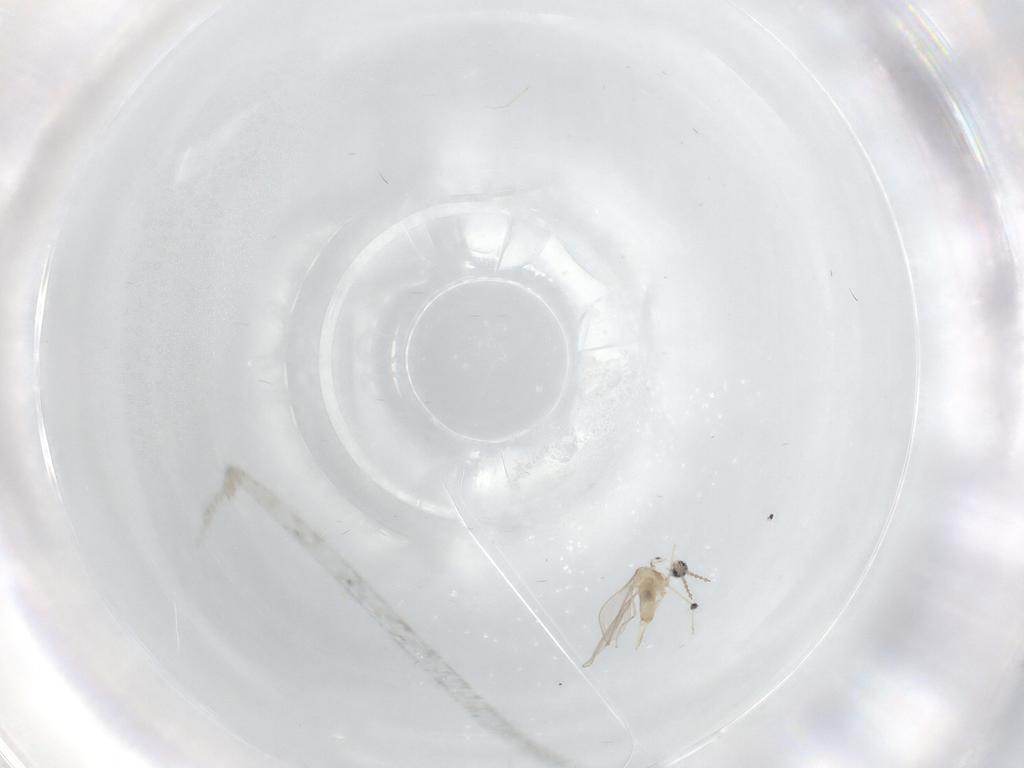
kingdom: Animalia
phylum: Arthropoda
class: Insecta
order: Diptera
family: Cecidomyiidae
